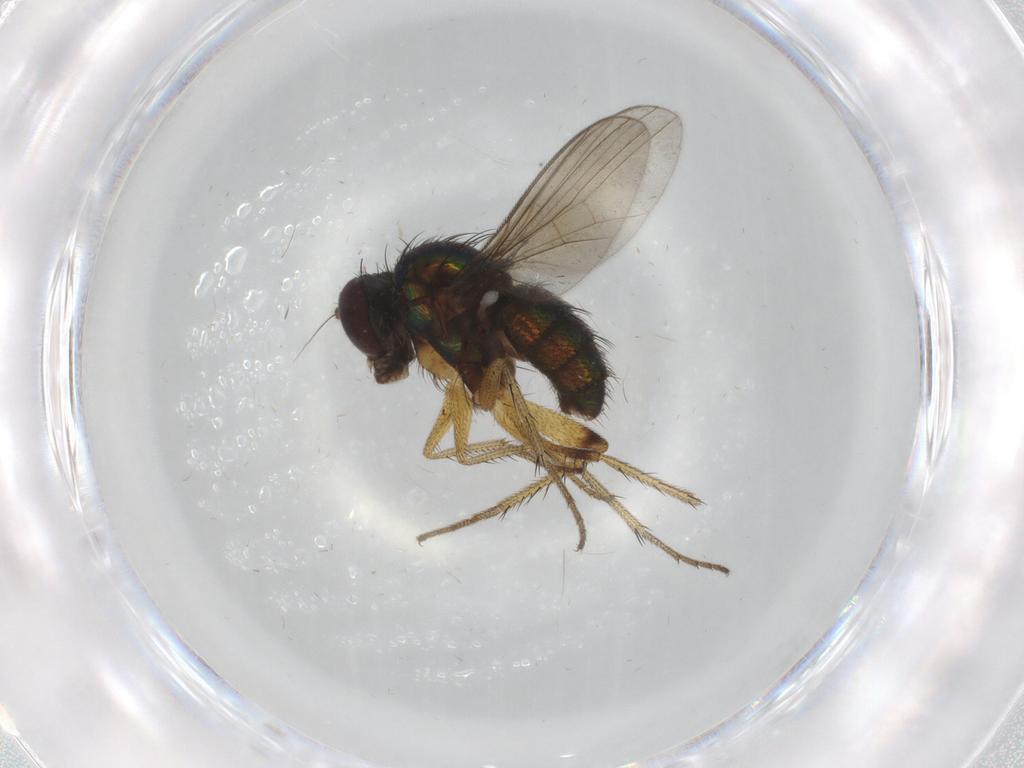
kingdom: Animalia
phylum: Arthropoda
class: Insecta
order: Diptera
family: Dolichopodidae
